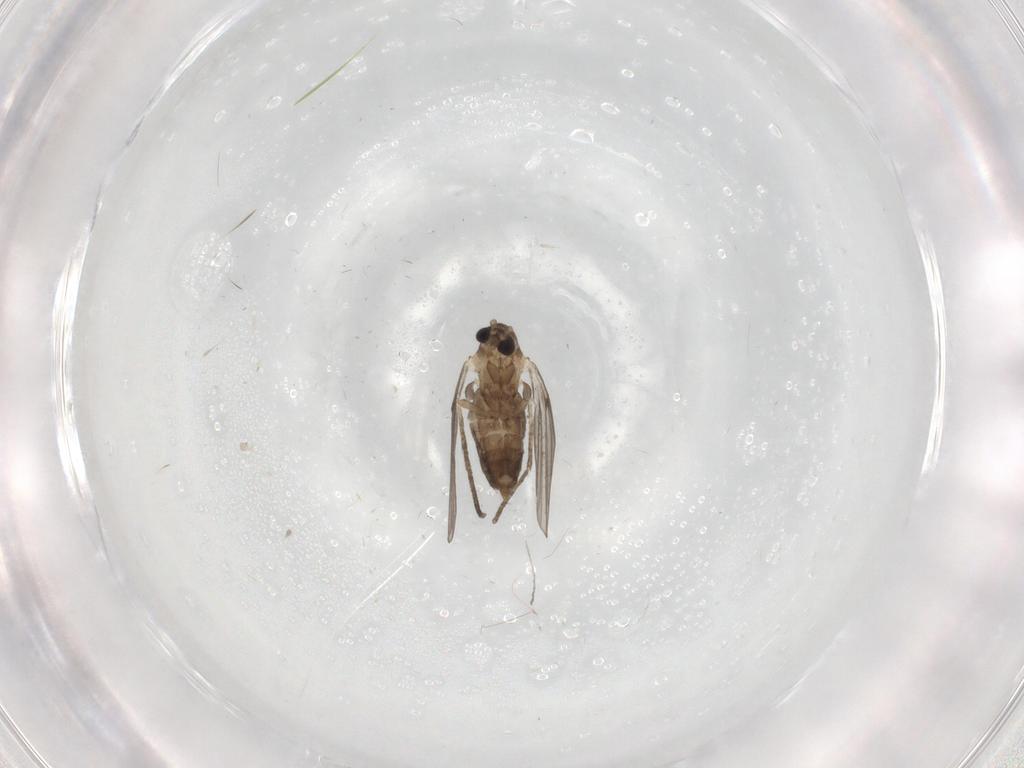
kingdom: Animalia
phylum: Arthropoda
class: Insecta
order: Diptera
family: Cecidomyiidae
